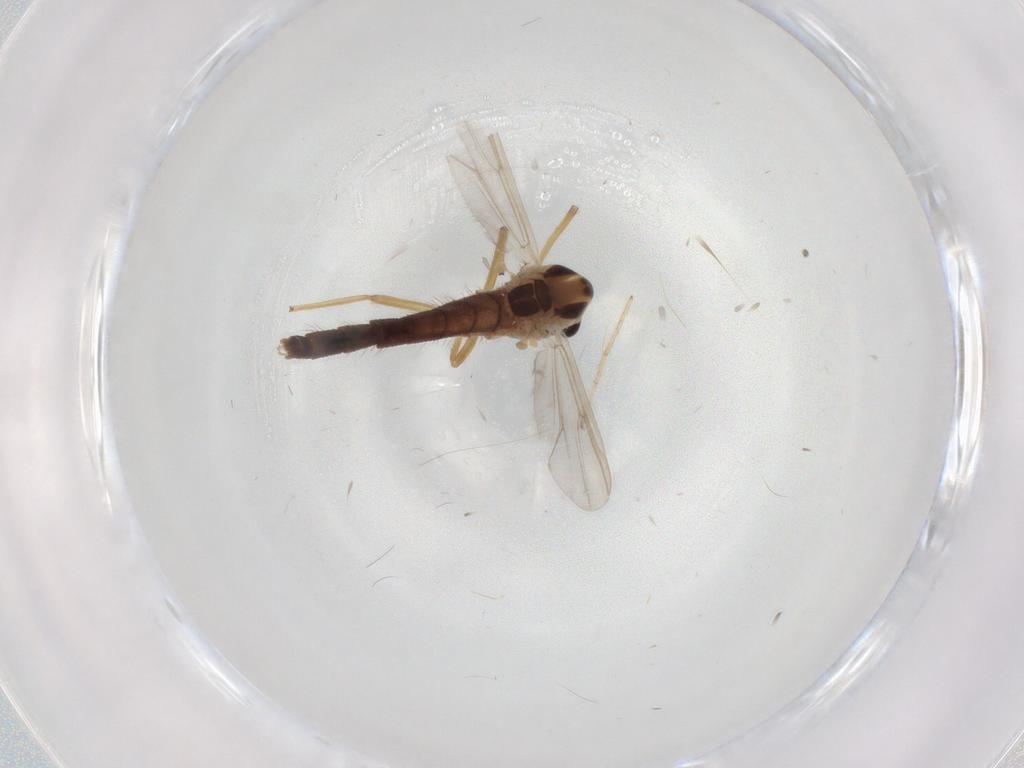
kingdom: Animalia
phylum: Arthropoda
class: Insecta
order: Diptera
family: Chironomidae
